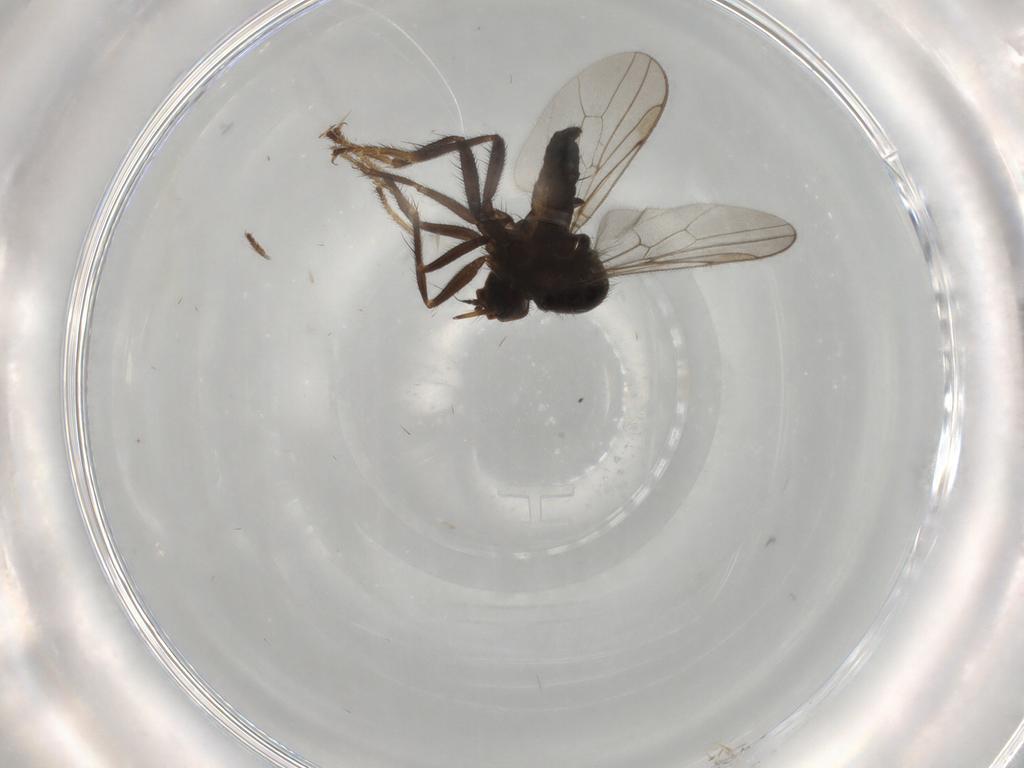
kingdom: Animalia
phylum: Arthropoda
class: Insecta
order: Diptera
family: Hybotidae
